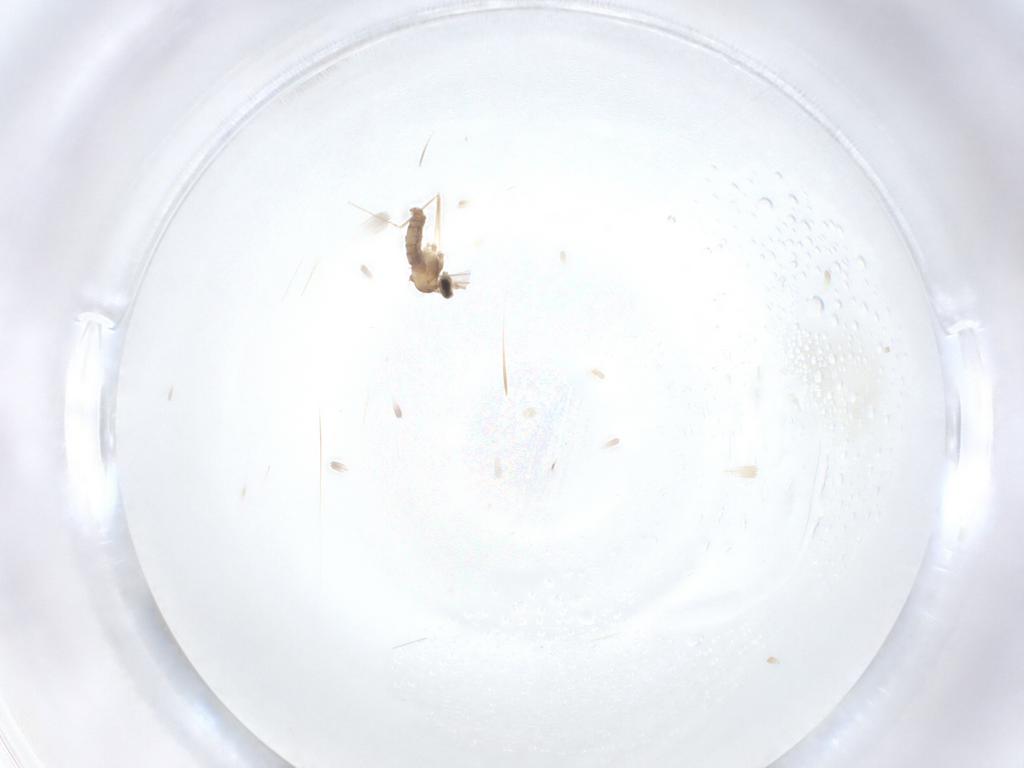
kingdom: Animalia
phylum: Arthropoda
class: Insecta
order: Diptera
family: Cecidomyiidae
